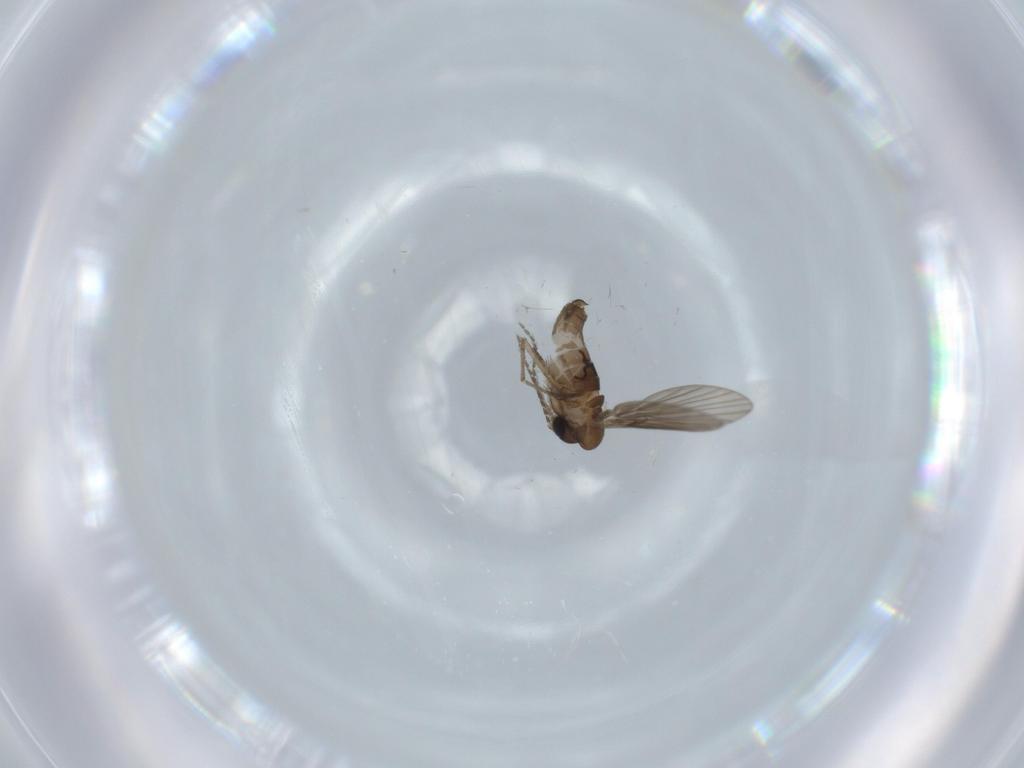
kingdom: Animalia
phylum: Arthropoda
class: Insecta
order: Diptera
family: Psychodidae
